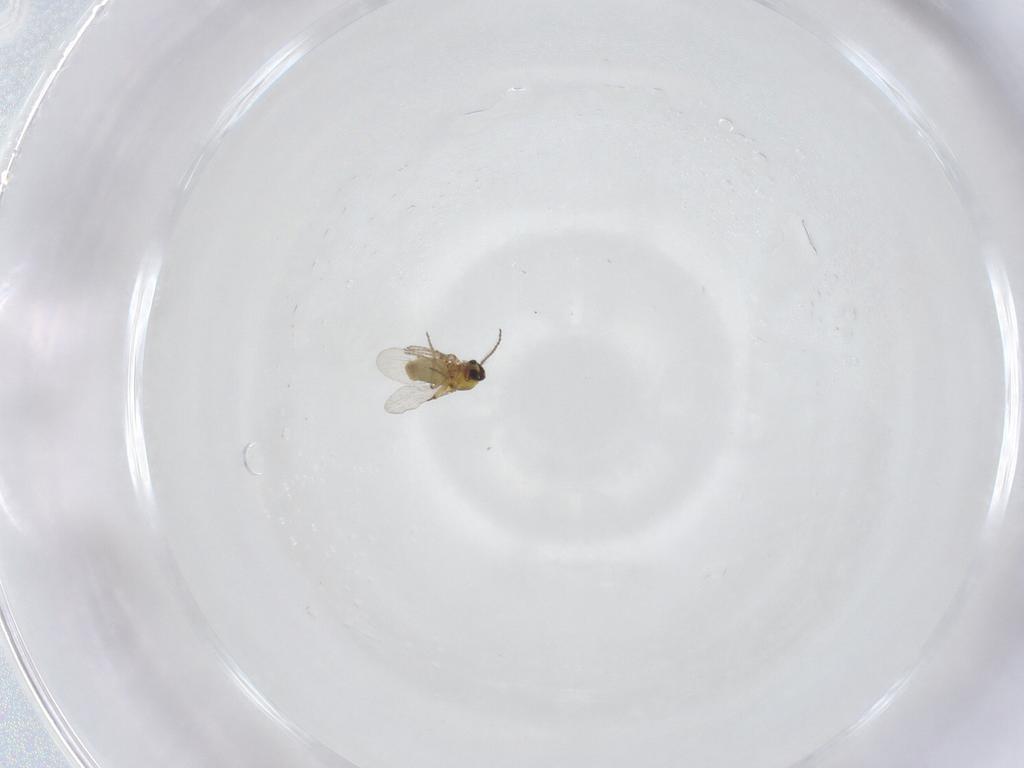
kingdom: Animalia
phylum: Arthropoda
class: Insecta
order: Diptera
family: Ceratopogonidae
